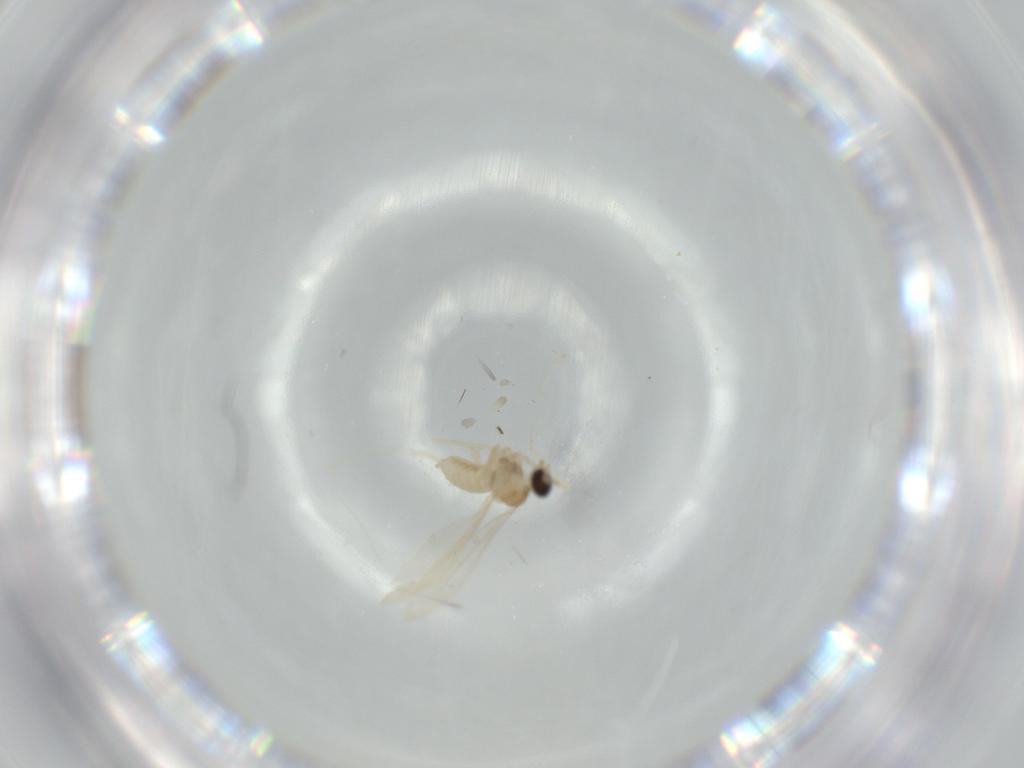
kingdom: Animalia
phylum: Arthropoda
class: Insecta
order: Diptera
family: Cecidomyiidae
